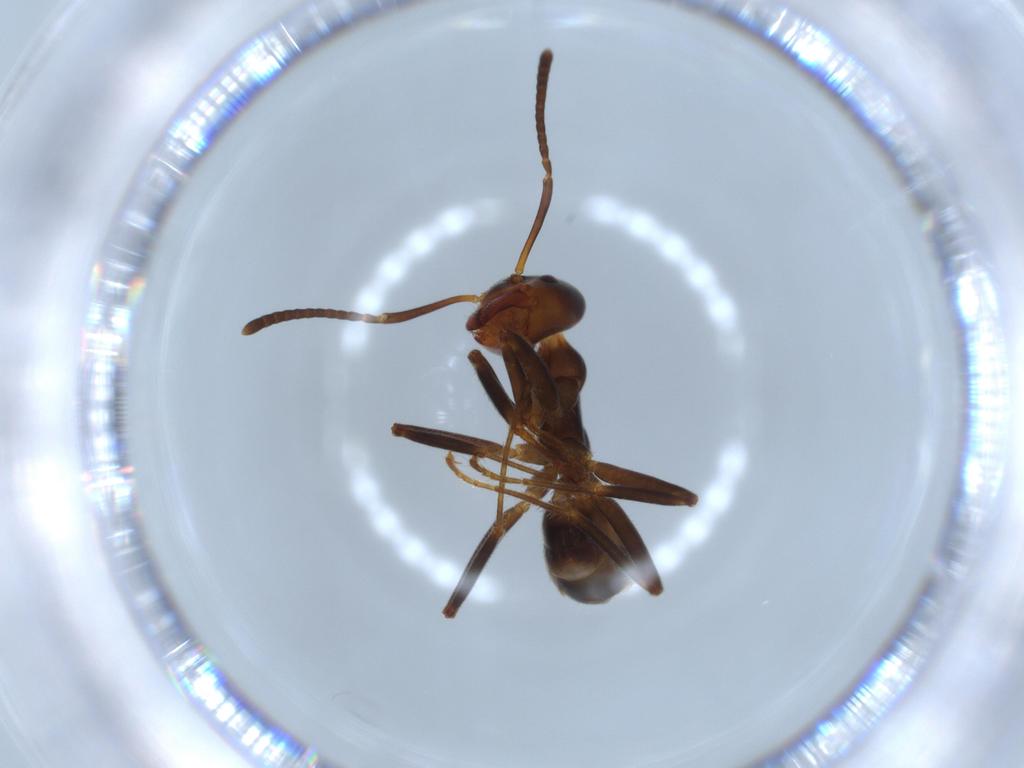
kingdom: Animalia
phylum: Arthropoda
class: Insecta
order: Hymenoptera
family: Formicidae
